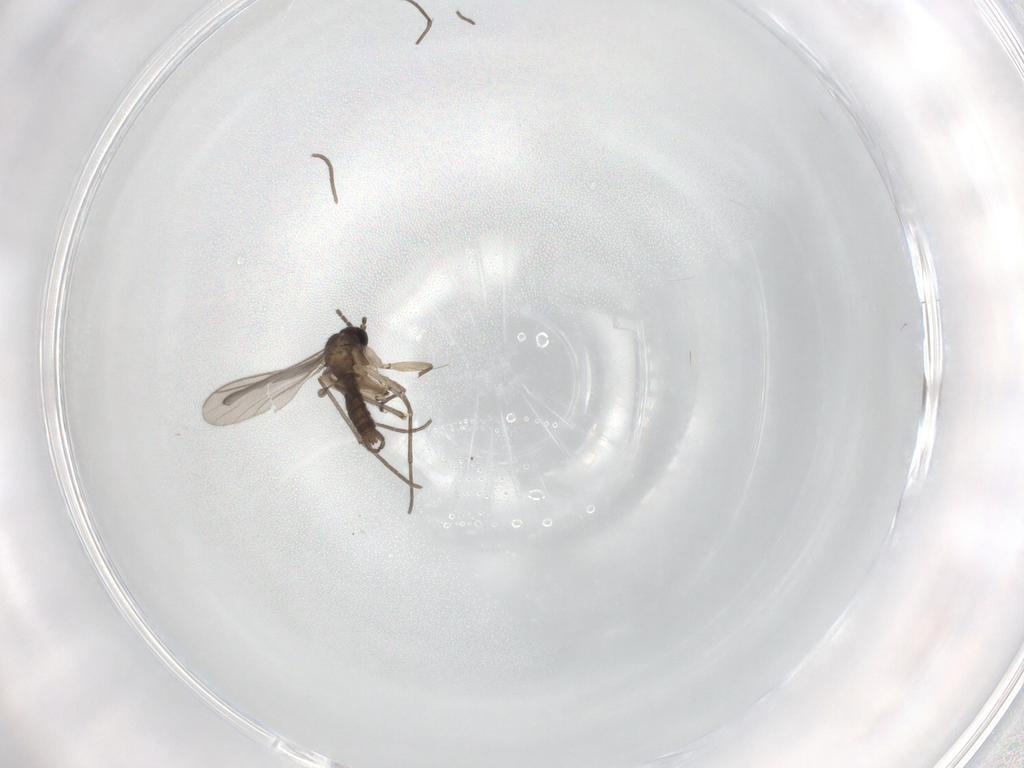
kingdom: Animalia
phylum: Arthropoda
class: Insecta
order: Diptera
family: Sciaridae
